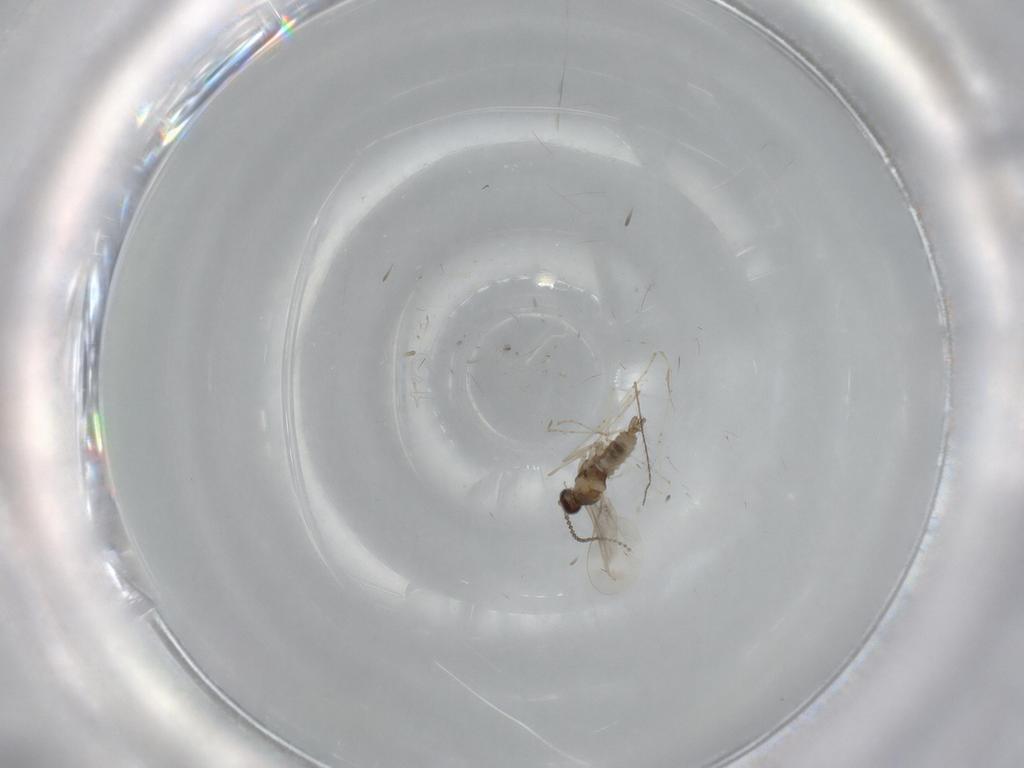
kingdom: Animalia
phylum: Arthropoda
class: Insecta
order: Diptera
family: Cecidomyiidae
